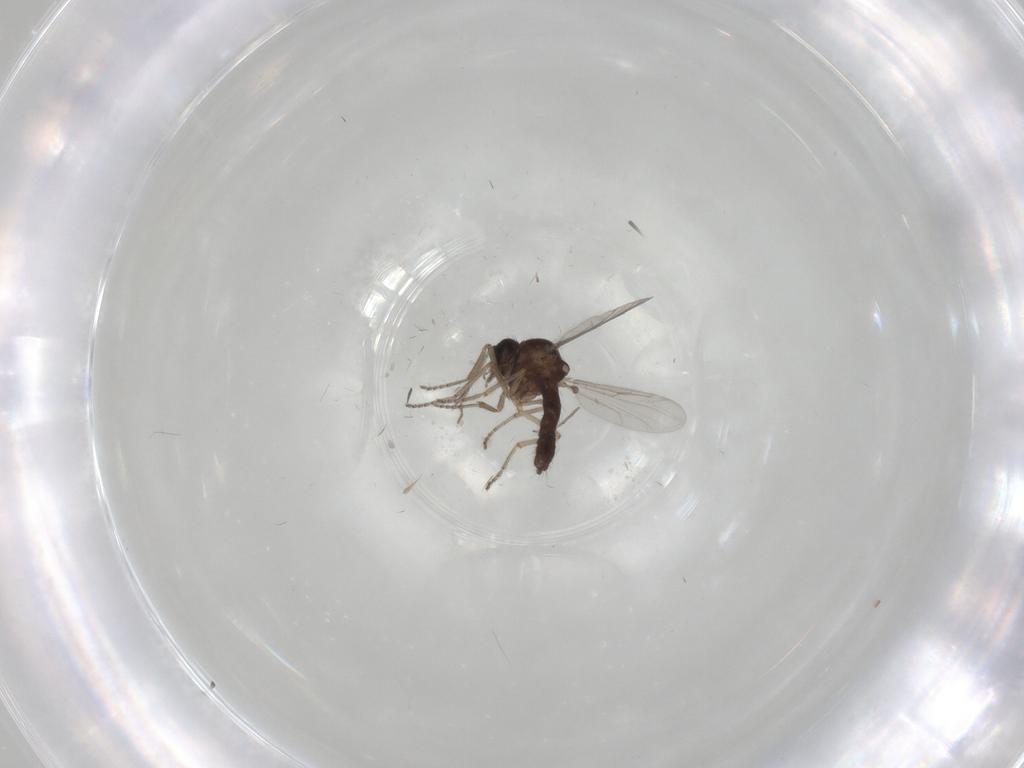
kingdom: Animalia
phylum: Arthropoda
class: Insecta
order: Diptera
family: Ceratopogonidae
